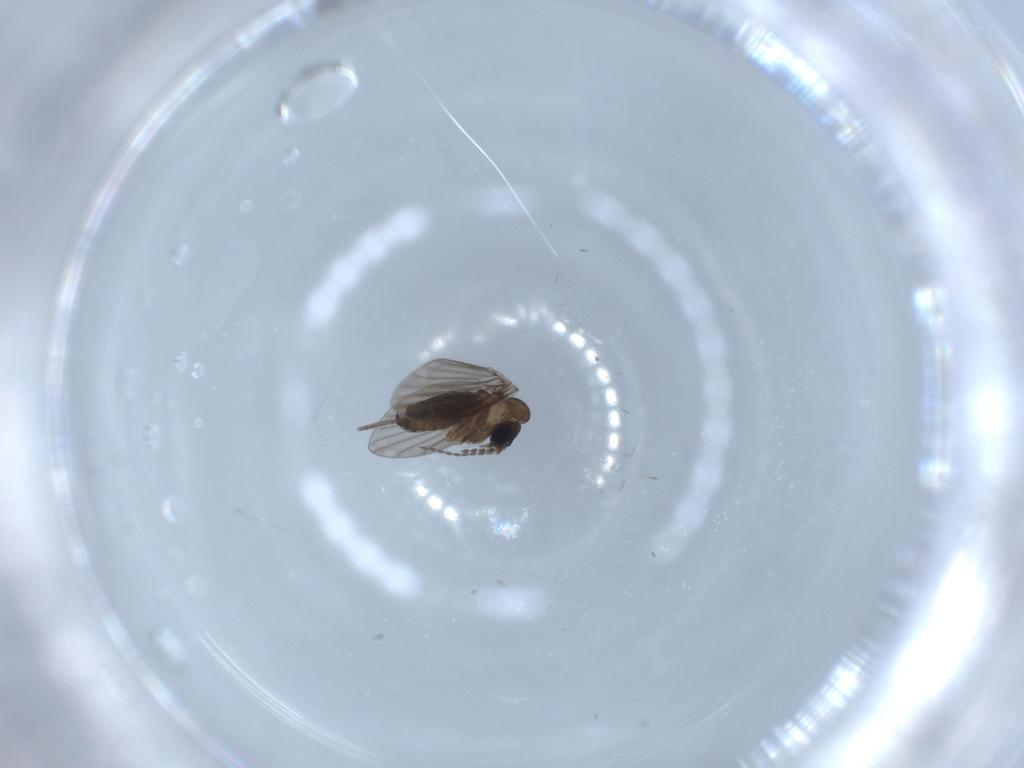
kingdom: Animalia
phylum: Arthropoda
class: Insecta
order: Diptera
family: Psychodidae
